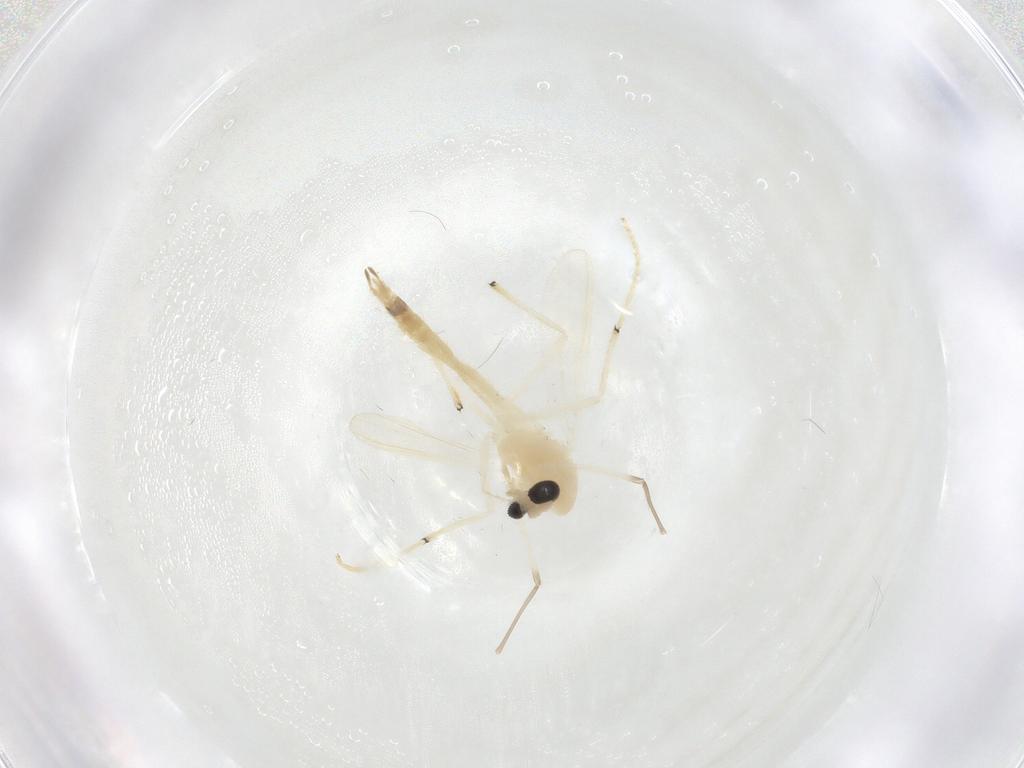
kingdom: Animalia
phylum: Arthropoda
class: Insecta
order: Diptera
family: Chironomidae
